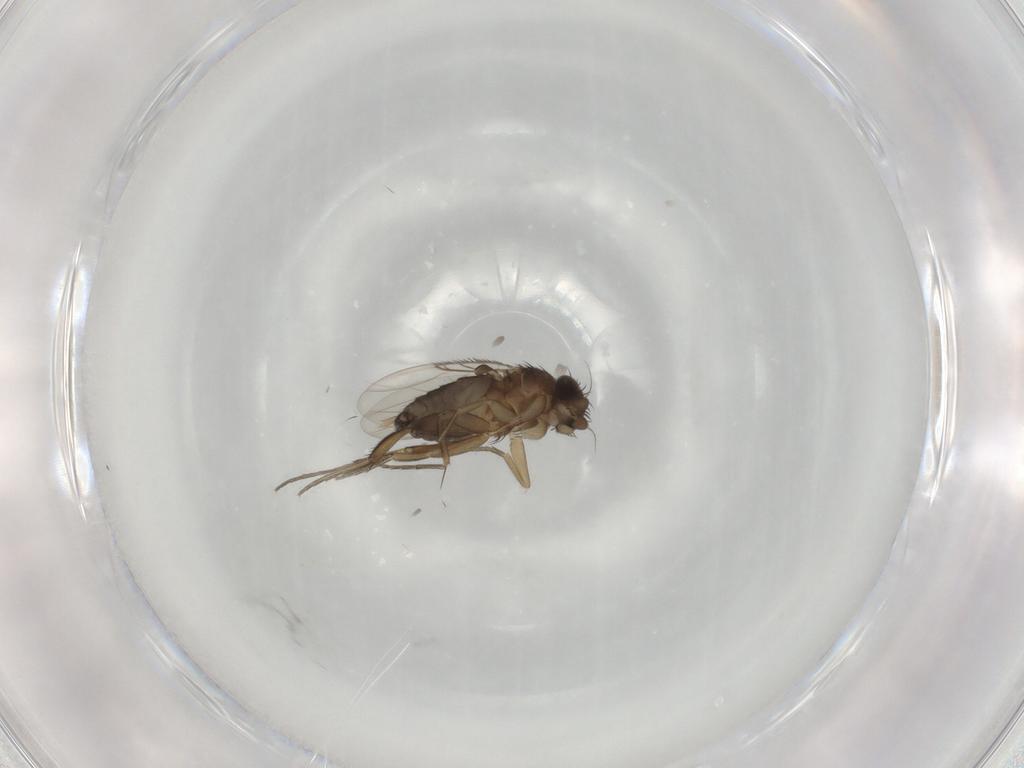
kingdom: Animalia
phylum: Arthropoda
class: Insecta
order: Diptera
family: Phoridae
